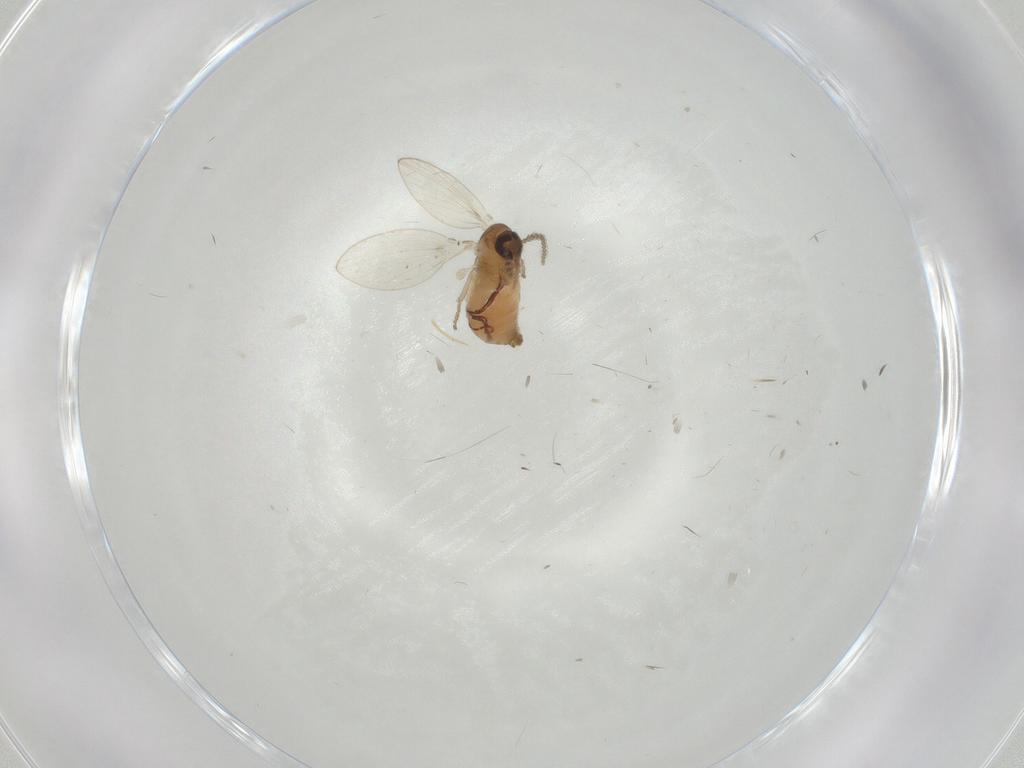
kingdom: Animalia
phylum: Arthropoda
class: Insecta
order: Diptera
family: Psychodidae
